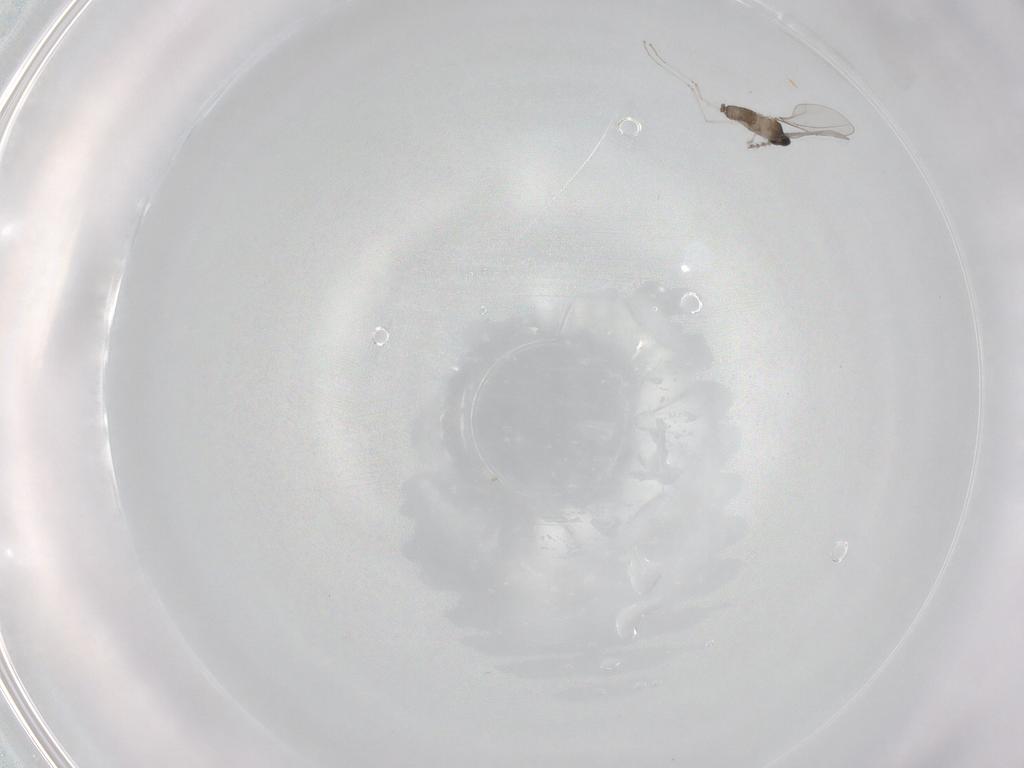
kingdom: Animalia
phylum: Arthropoda
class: Insecta
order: Diptera
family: Cecidomyiidae
